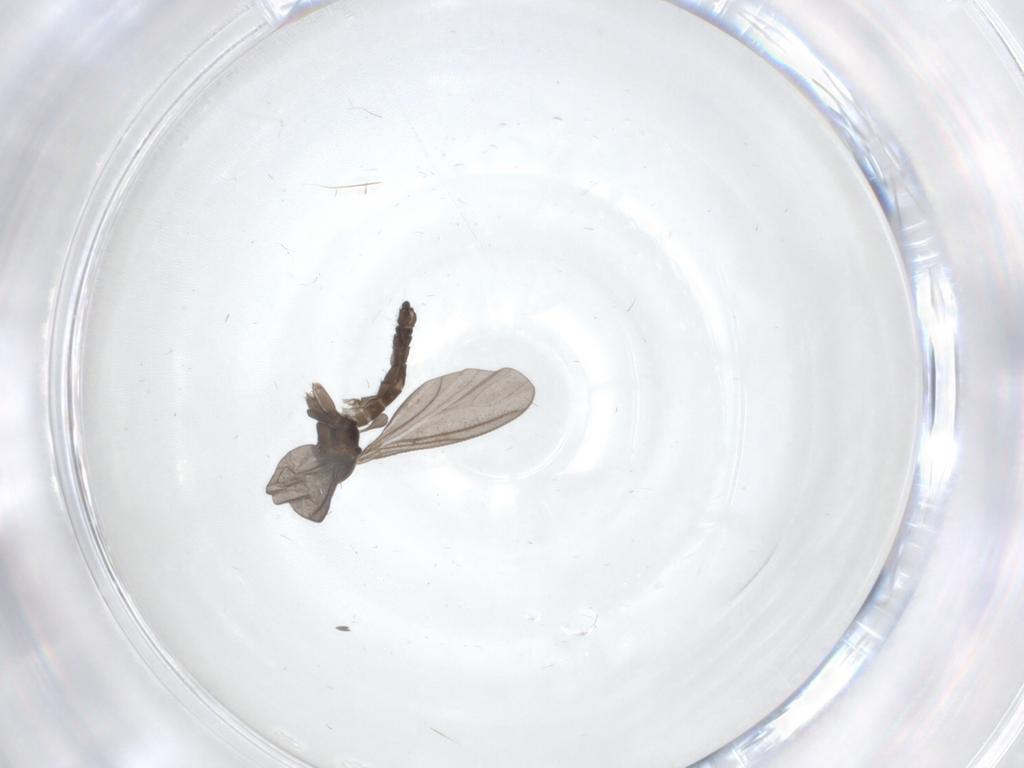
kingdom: Animalia
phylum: Arthropoda
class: Insecta
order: Diptera
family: Sciaridae
